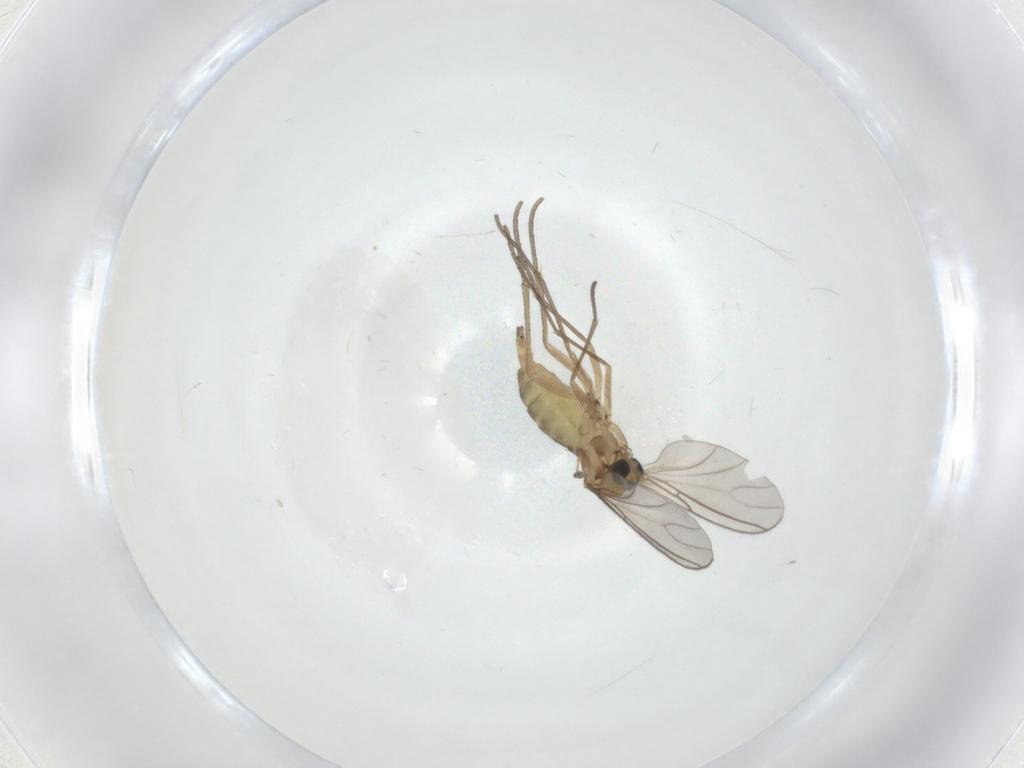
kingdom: Animalia
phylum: Arthropoda
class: Insecta
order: Diptera
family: Sciaridae
